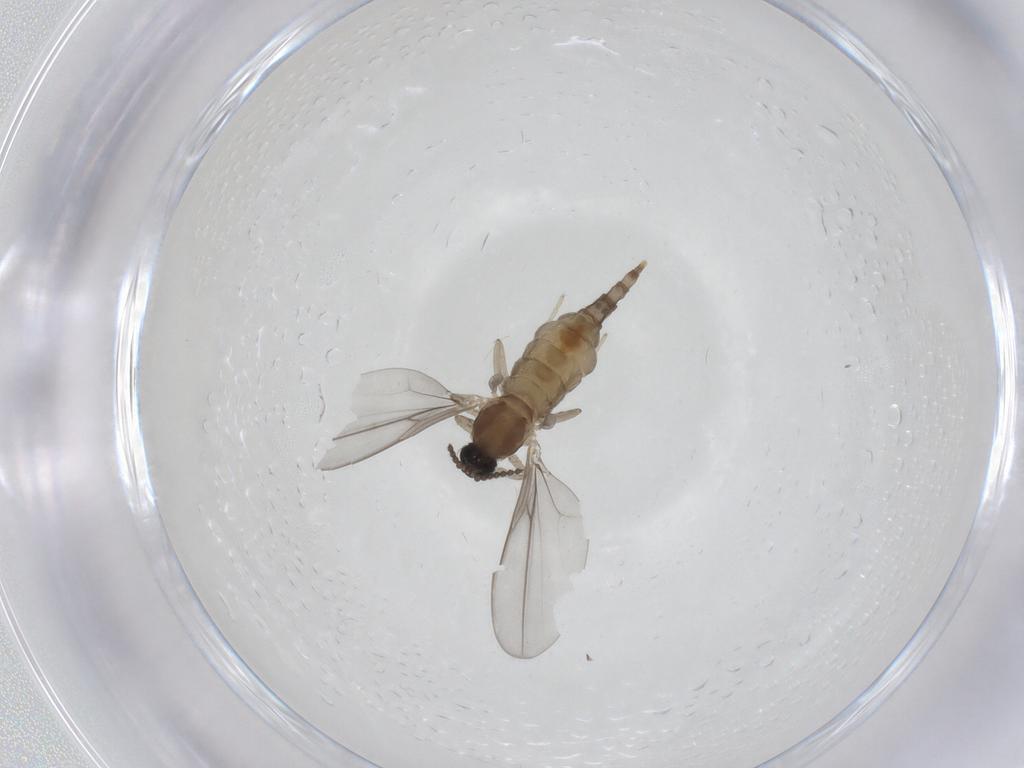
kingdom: Animalia
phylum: Arthropoda
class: Insecta
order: Diptera
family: Cecidomyiidae
